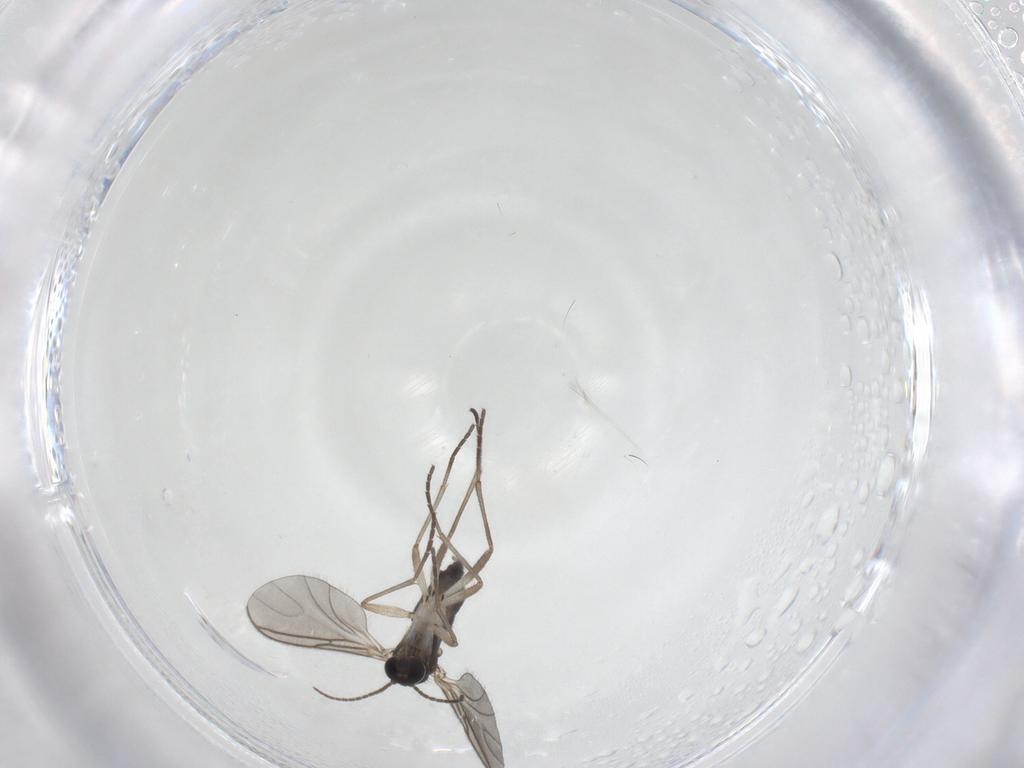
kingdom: Animalia
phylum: Arthropoda
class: Insecta
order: Diptera
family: Sciaridae
